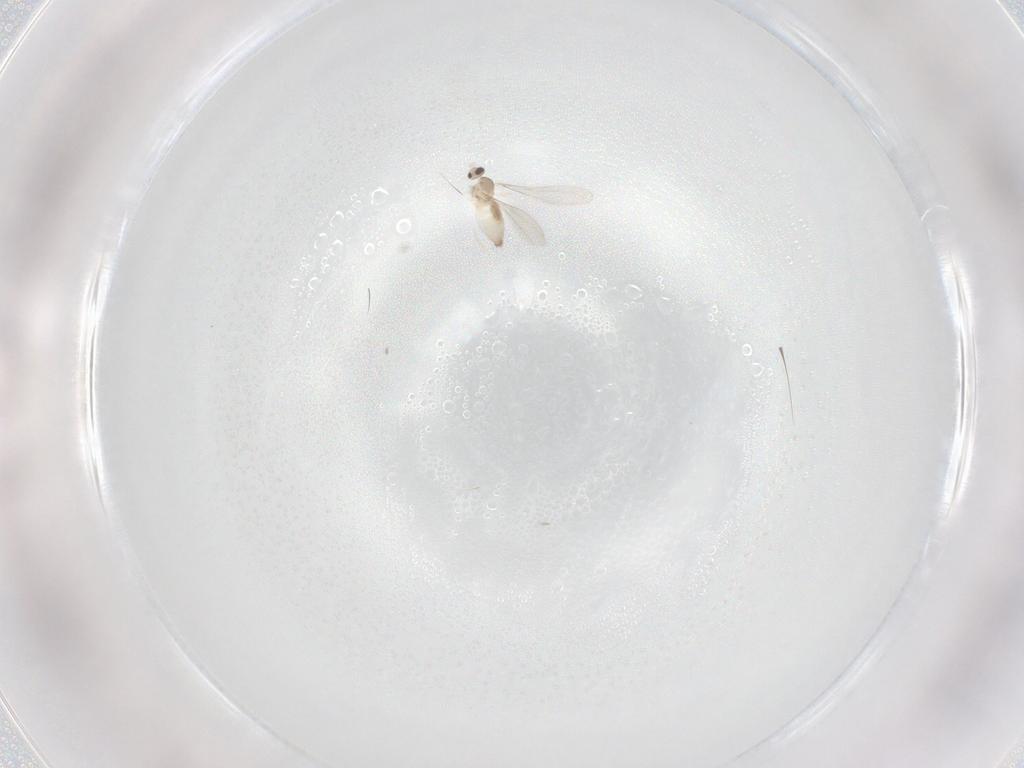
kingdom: Animalia
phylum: Arthropoda
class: Insecta
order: Diptera
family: Cecidomyiidae
